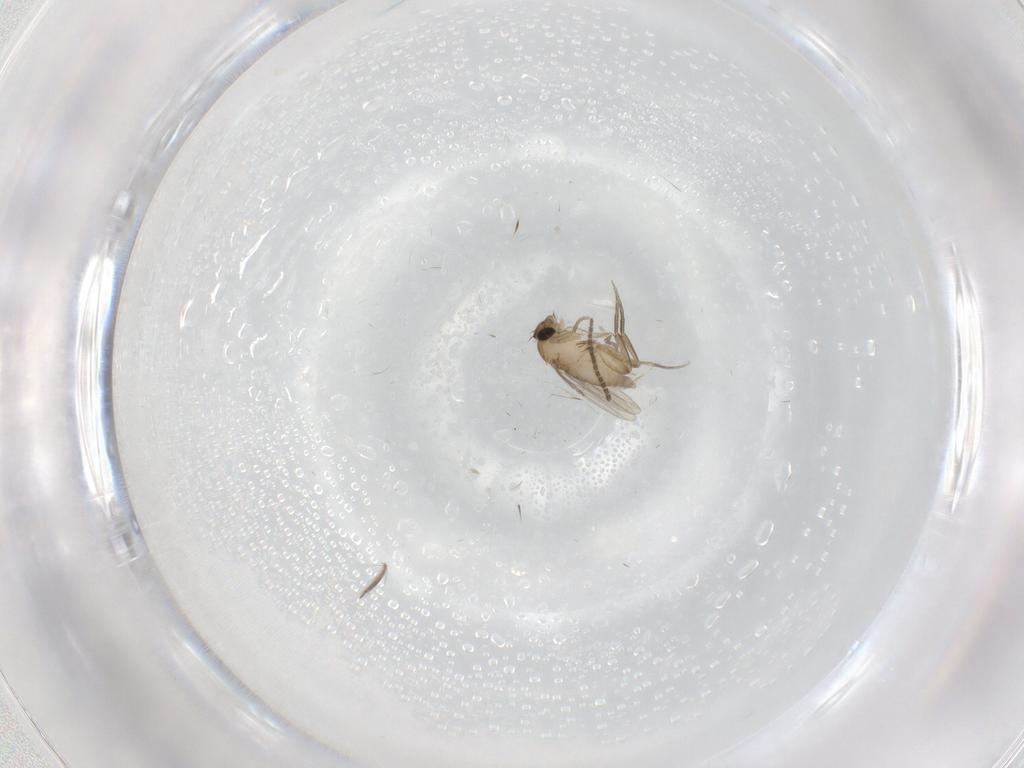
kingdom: Animalia
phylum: Arthropoda
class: Insecta
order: Diptera
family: Sciaridae
